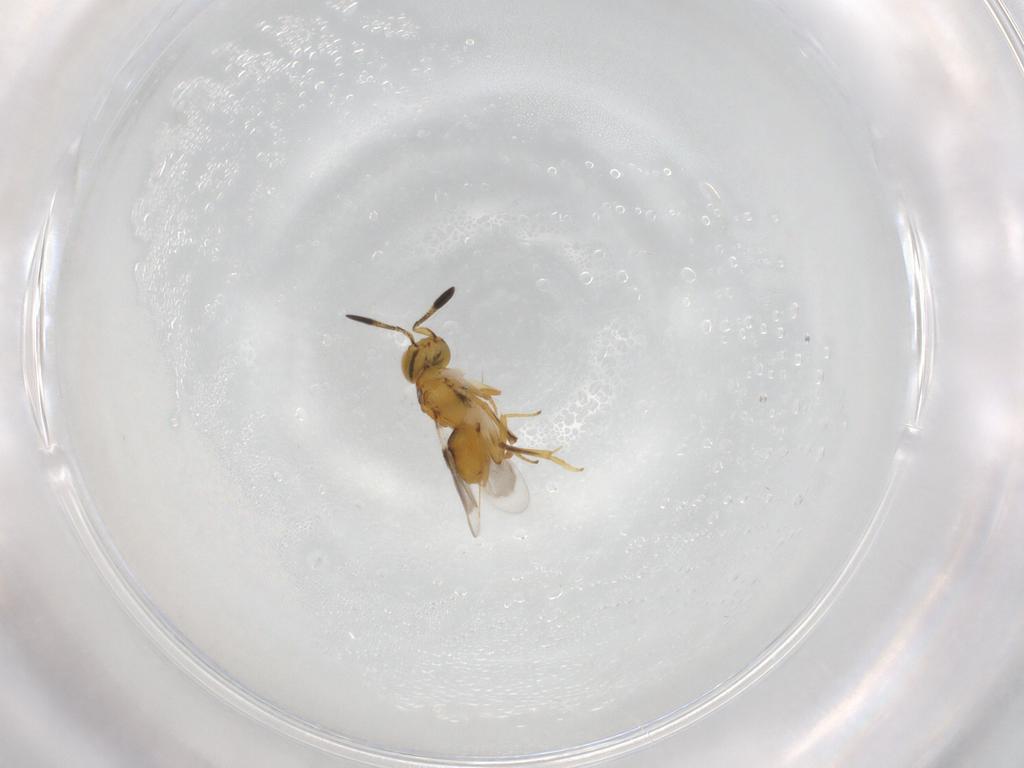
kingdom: Animalia
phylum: Arthropoda
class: Insecta
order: Hymenoptera
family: Encyrtidae
